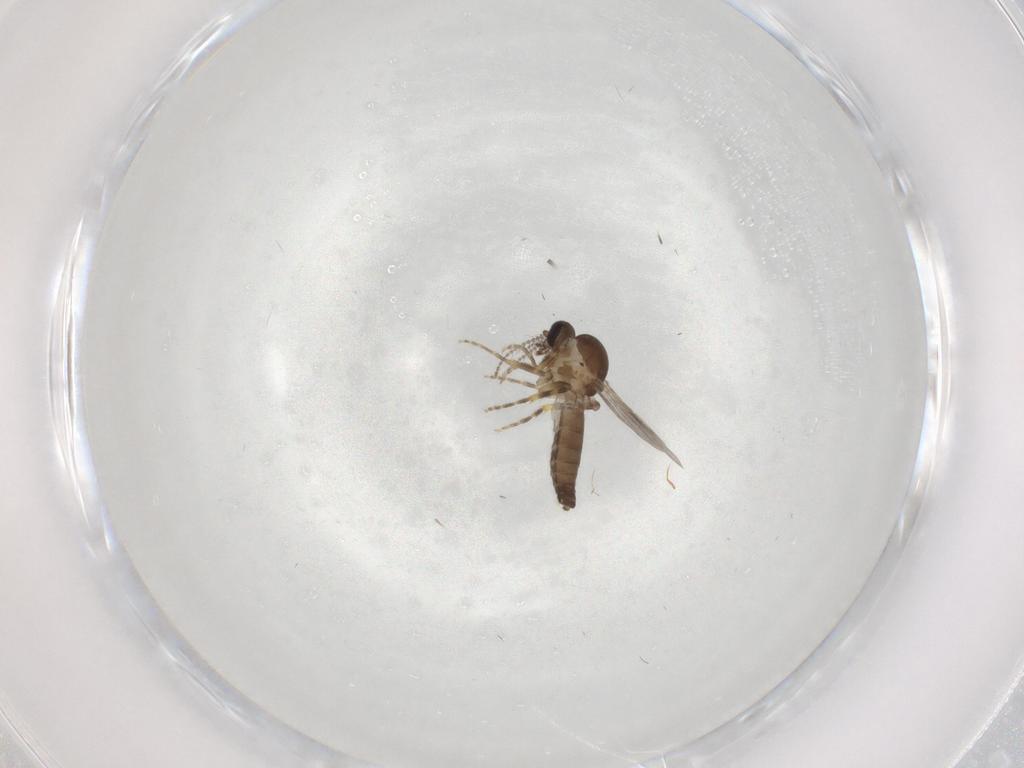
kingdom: Animalia
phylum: Arthropoda
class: Insecta
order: Diptera
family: Ceratopogonidae
